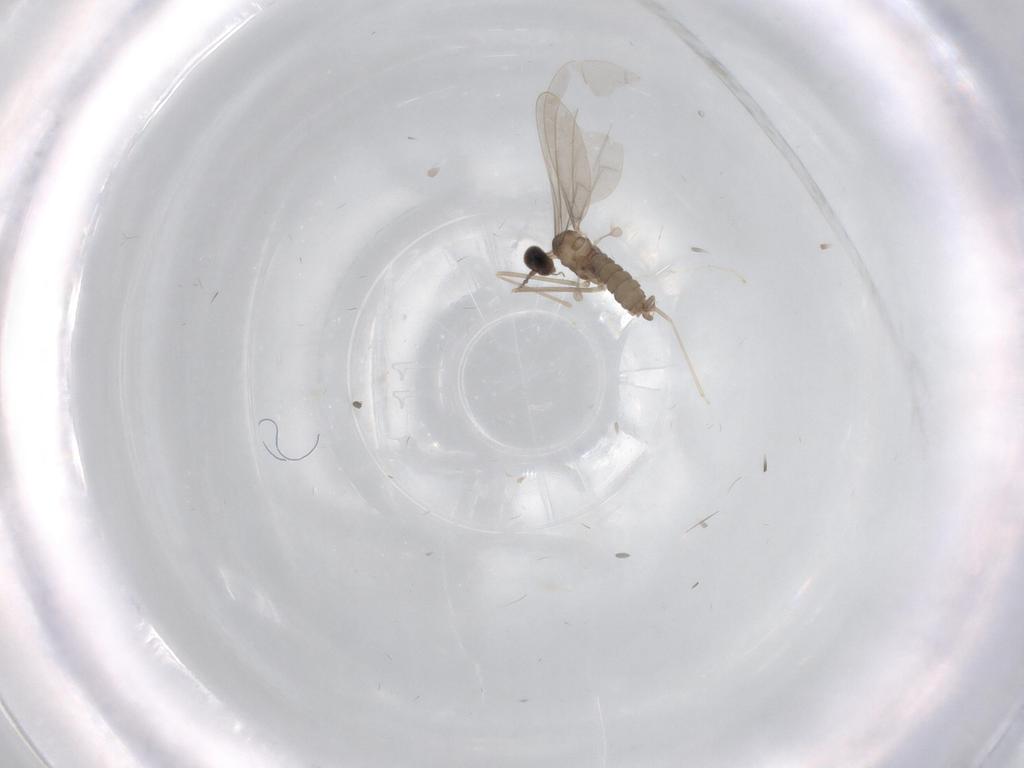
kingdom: Animalia
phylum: Arthropoda
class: Insecta
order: Diptera
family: Cecidomyiidae
